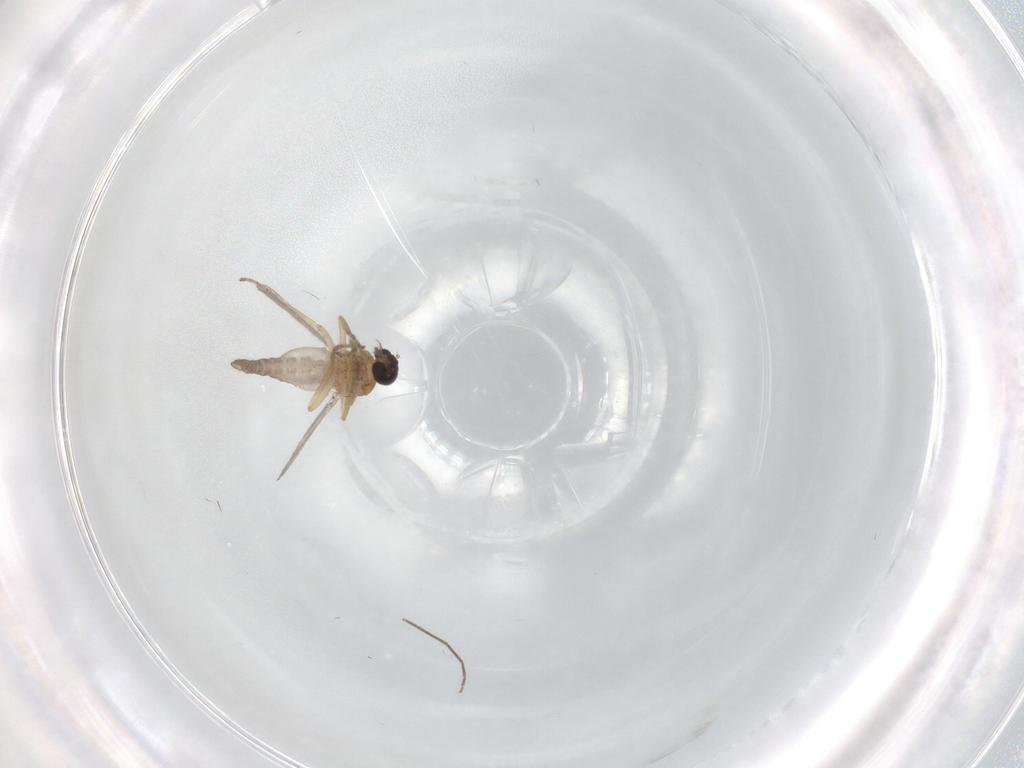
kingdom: Animalia
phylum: Arthropoda
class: Insecta
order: Diptera
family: Ceratopogonidae
